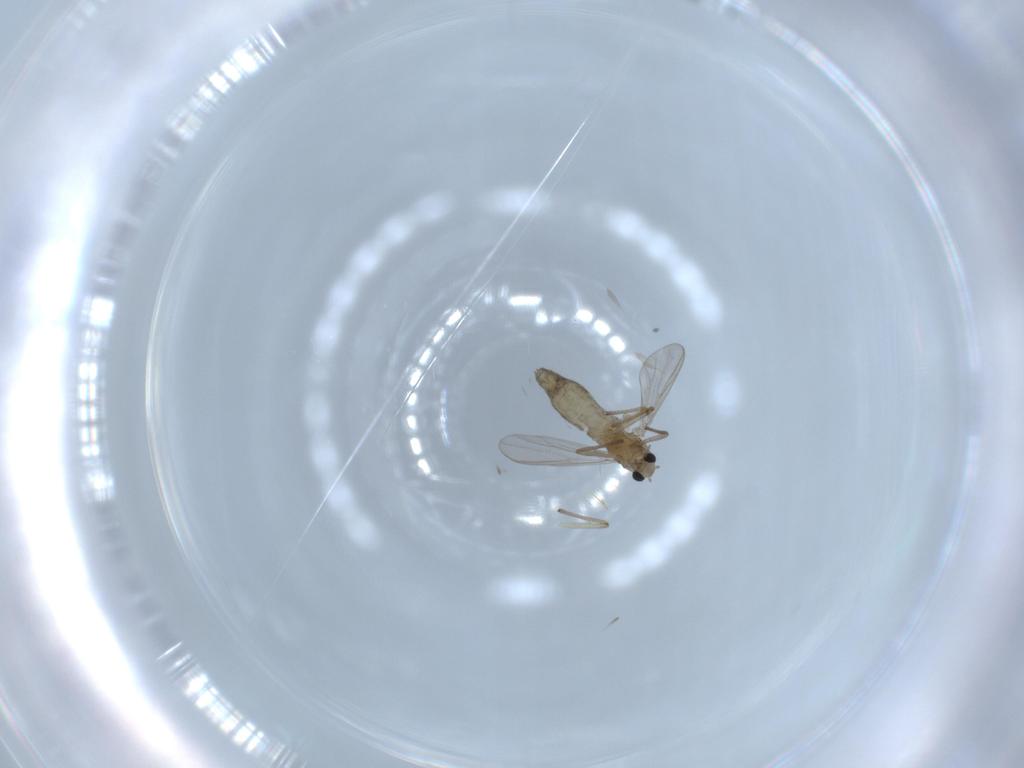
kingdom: Animalia
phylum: Arthropoda
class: Insecta
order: Diptera
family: Chironomidae
